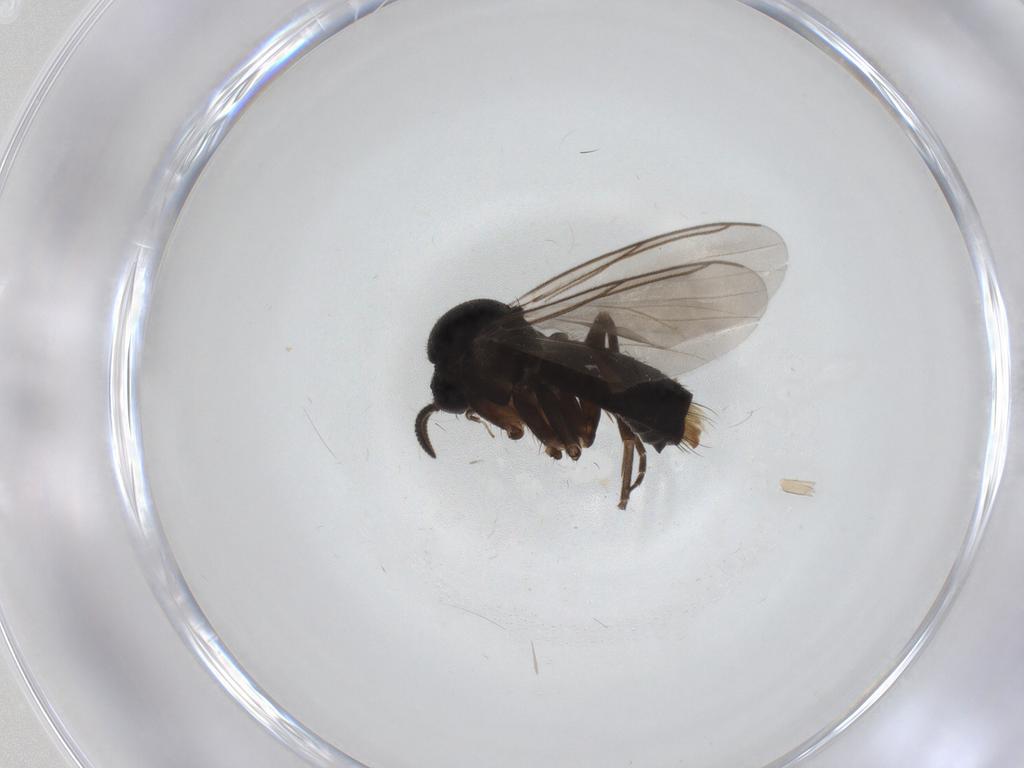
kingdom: Animalia
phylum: Arthropoda
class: Insecta
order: Diptera
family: Mycetophilidae
